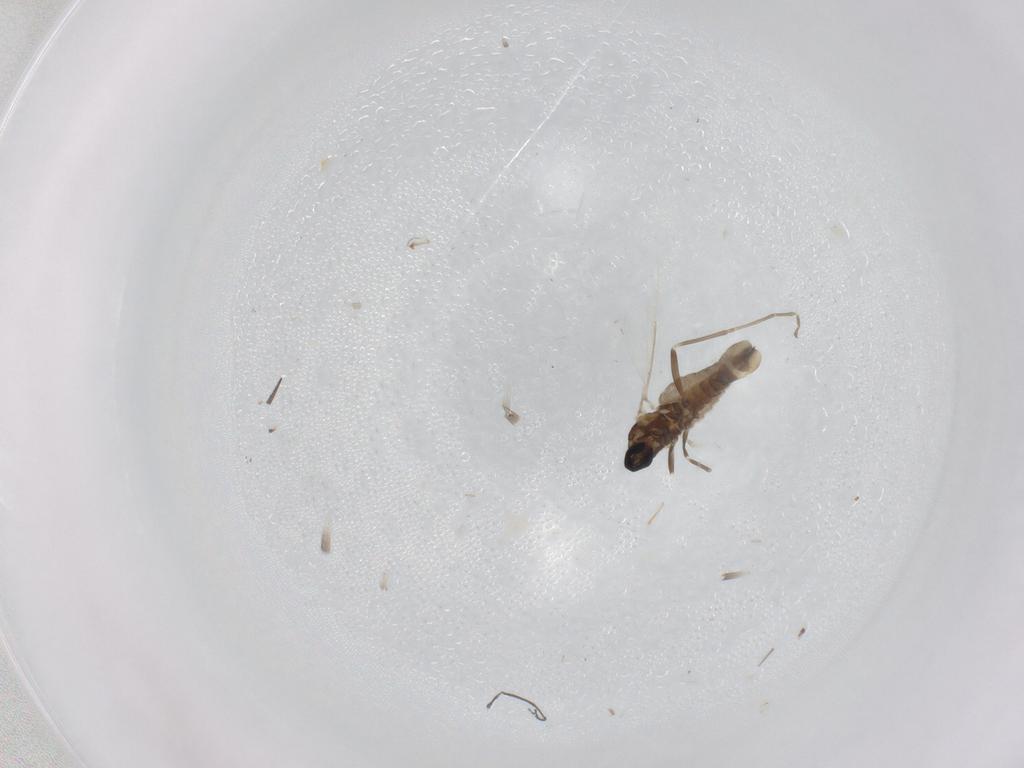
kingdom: Animalia
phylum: Arthropoda
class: Insecta
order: Diptera
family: Cecidomyiidae
